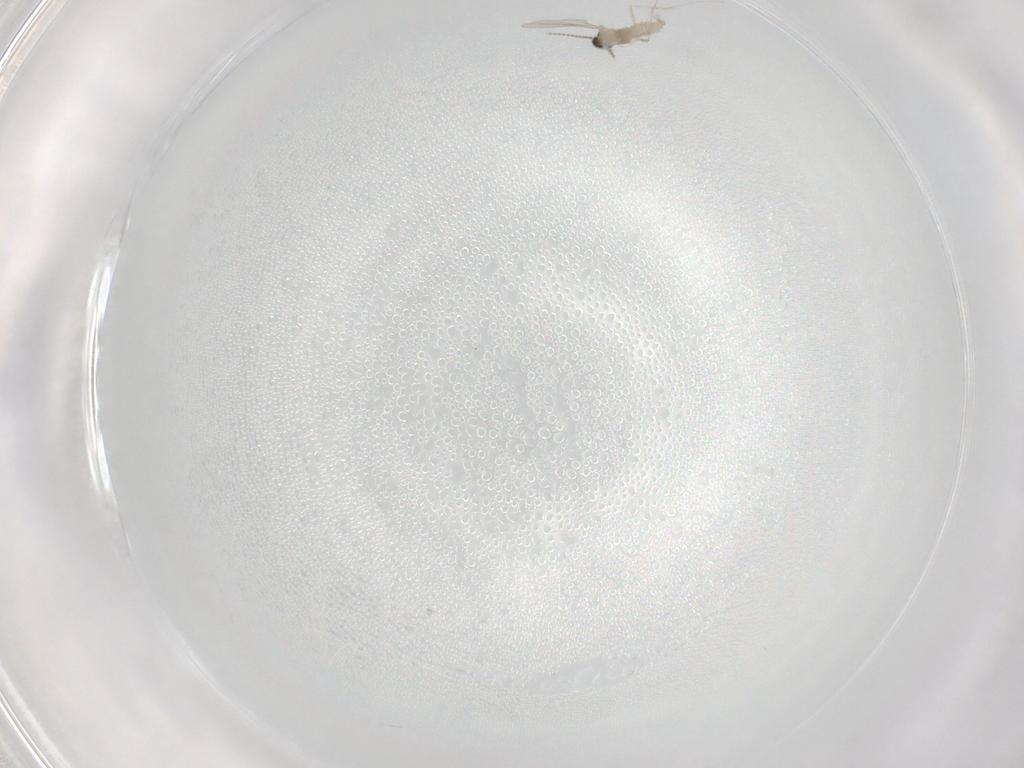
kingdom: Animalia
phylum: Arthropoda
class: Insecta
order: Diptera
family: Cecidomyiidae
